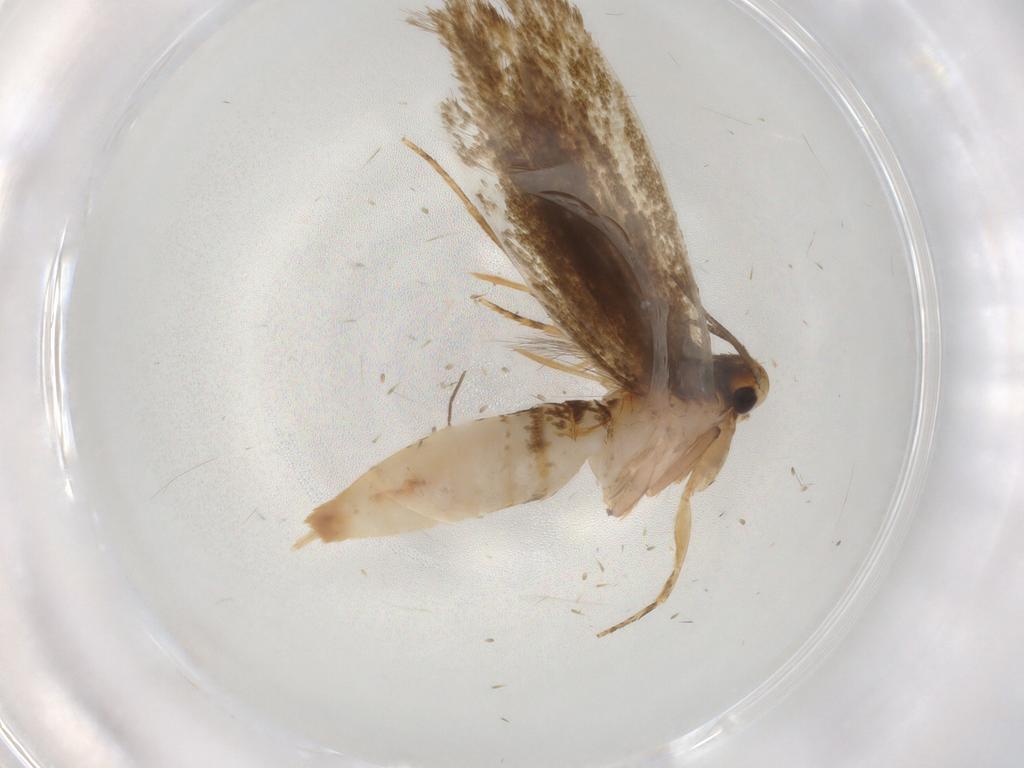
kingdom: Animalia
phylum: Arthropoda
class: Insecta
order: Lepidoptera
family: Tineidae
